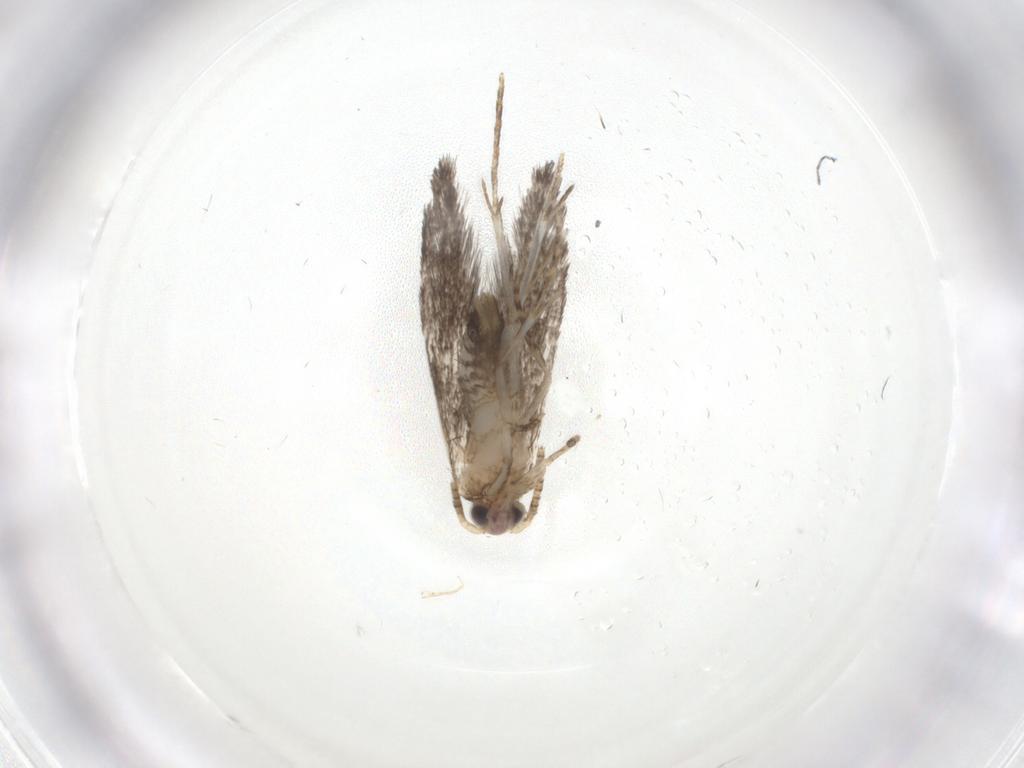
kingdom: Animalia
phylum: Arthropoda
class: Insecta
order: Lepidoptera
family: Tineidae
